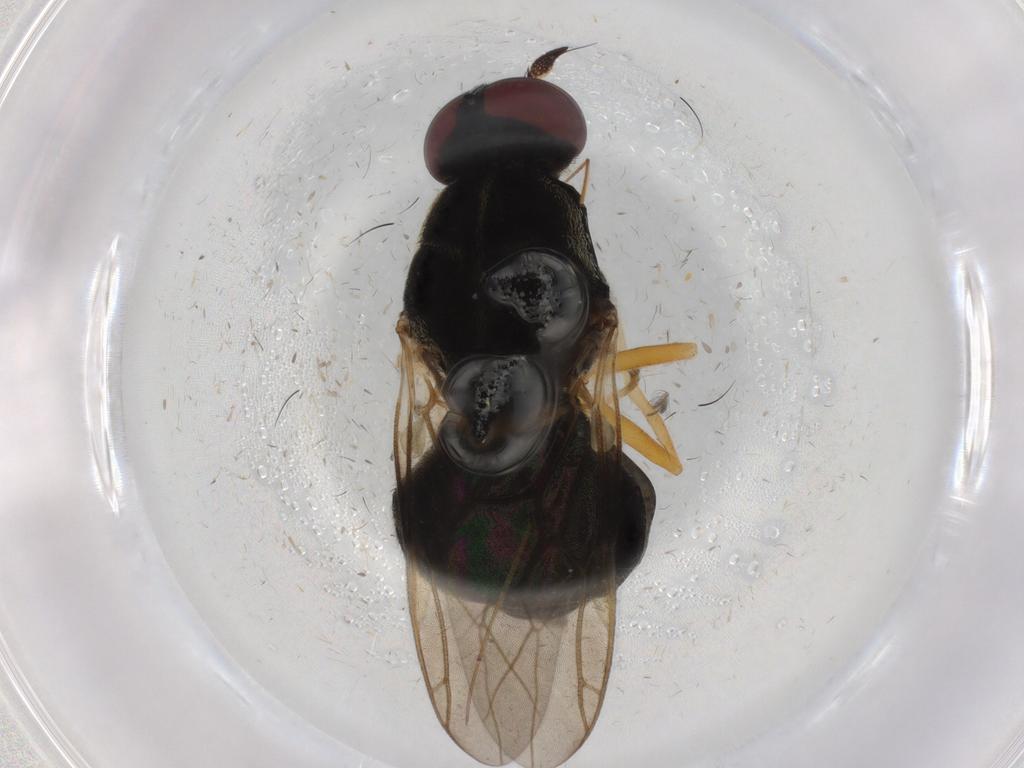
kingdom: Animalia
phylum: Arthropoda
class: Insecta
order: Diptera
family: Stratiomyidae
